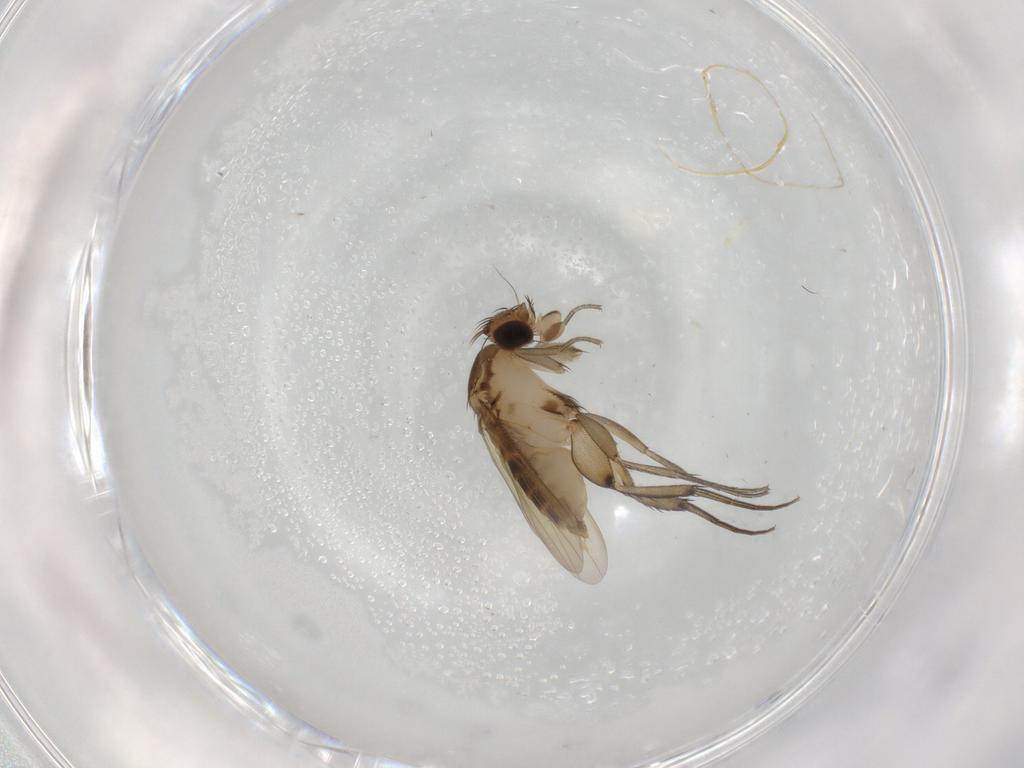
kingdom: Animalia
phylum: Arthropoda
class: Insecta
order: Diptera
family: Phoridae
